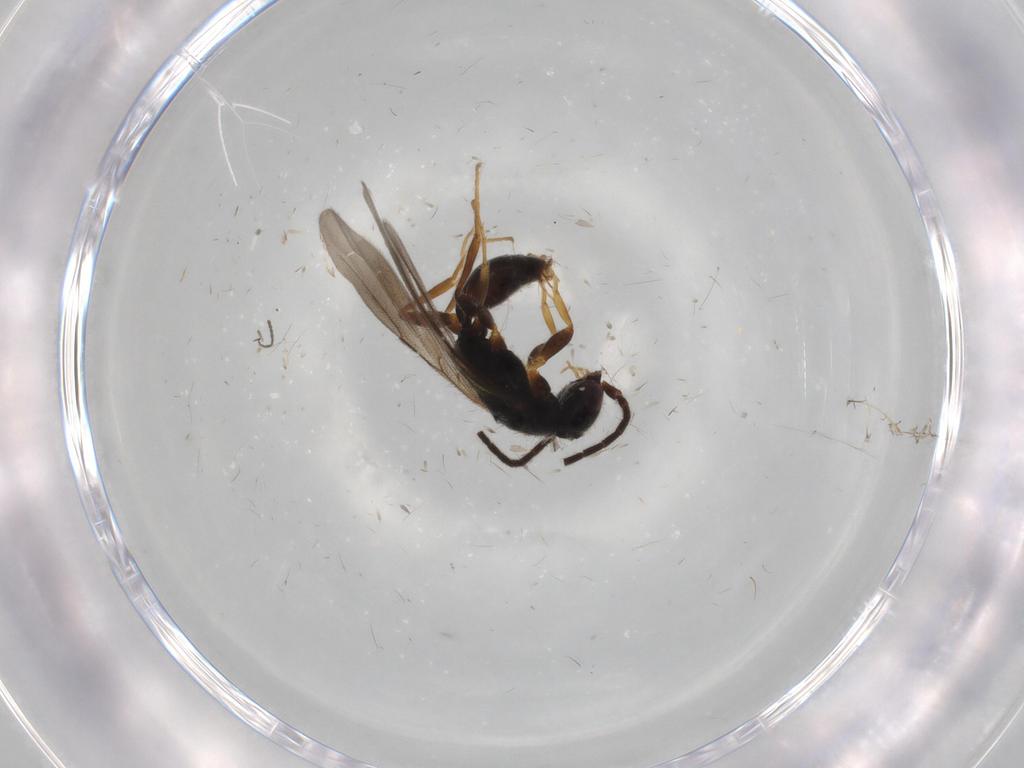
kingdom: Animalia
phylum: Arthropoda
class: Insecta
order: Hymenoptera
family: Bethylidae
